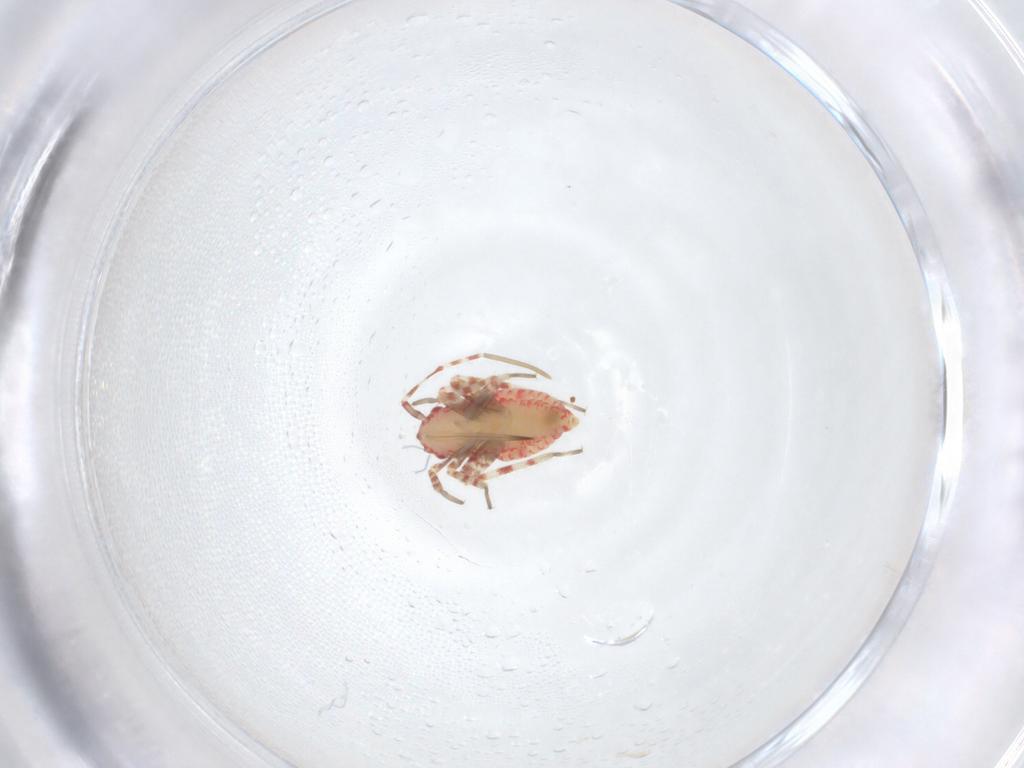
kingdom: Animalia
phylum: Arthropoda
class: Insecta
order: Hemiptera
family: Miridae
